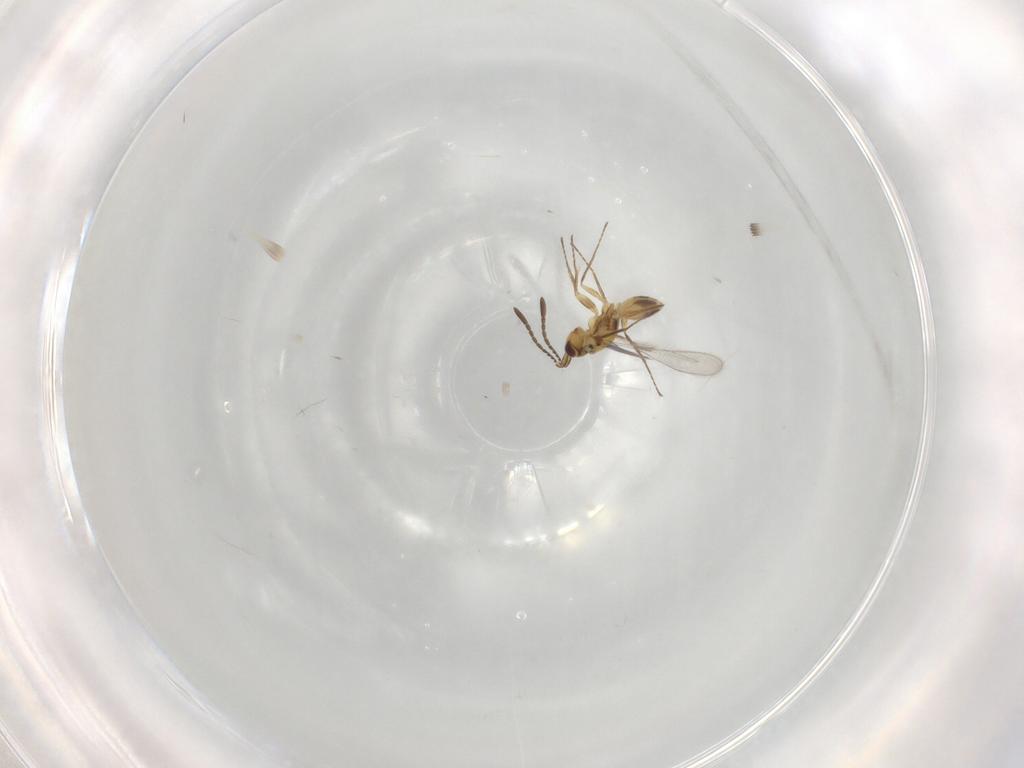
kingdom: Animalia
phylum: Arthropoda
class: Insecta
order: Hymenoptera
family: Mymaridae
